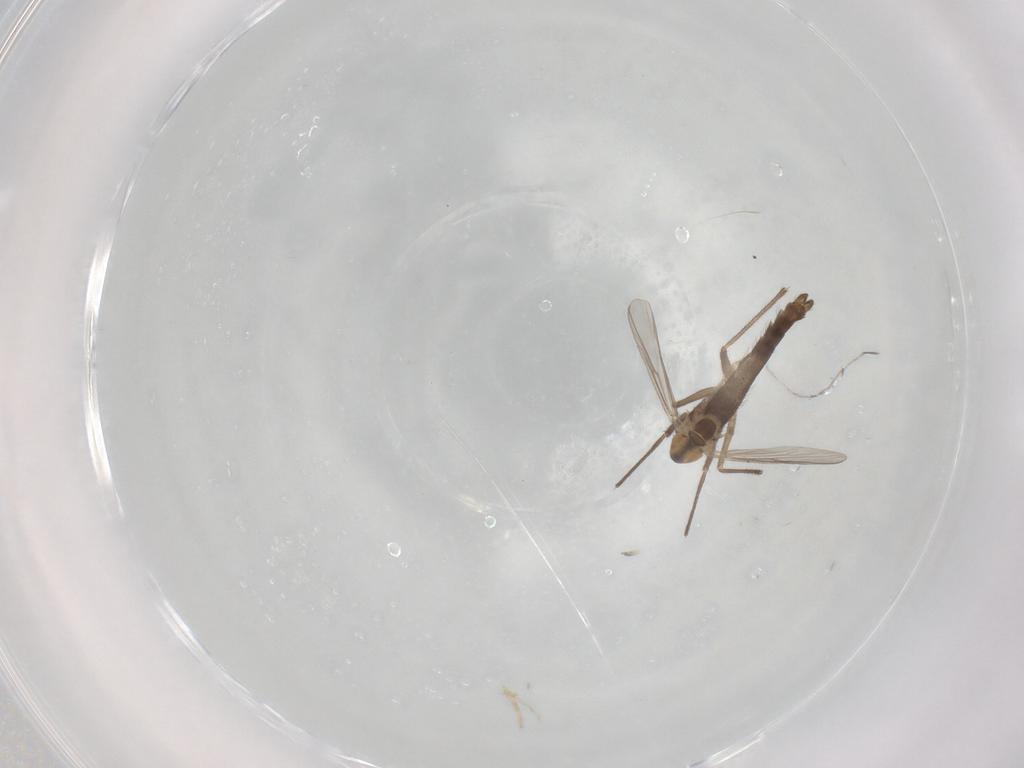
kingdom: Animalia
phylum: Arthropoda
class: Insecta
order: Diptera
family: Chironomidae
